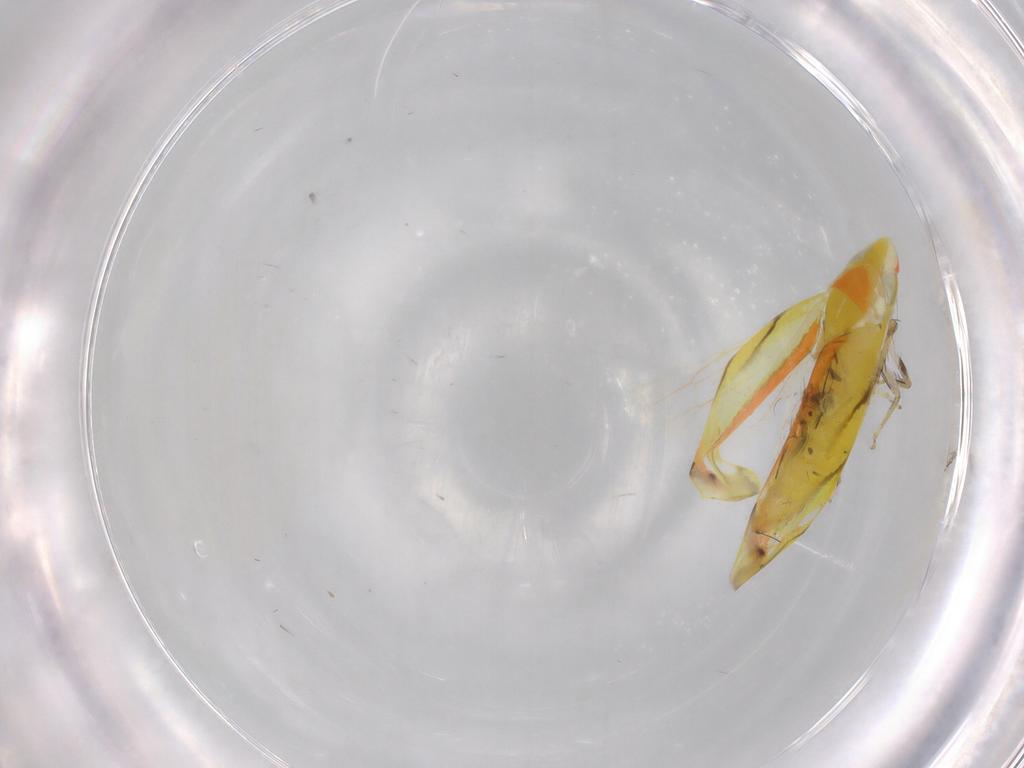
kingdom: Animalia
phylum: Arthropoda
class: Insecta
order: Hemiptera
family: Cicadellidae
